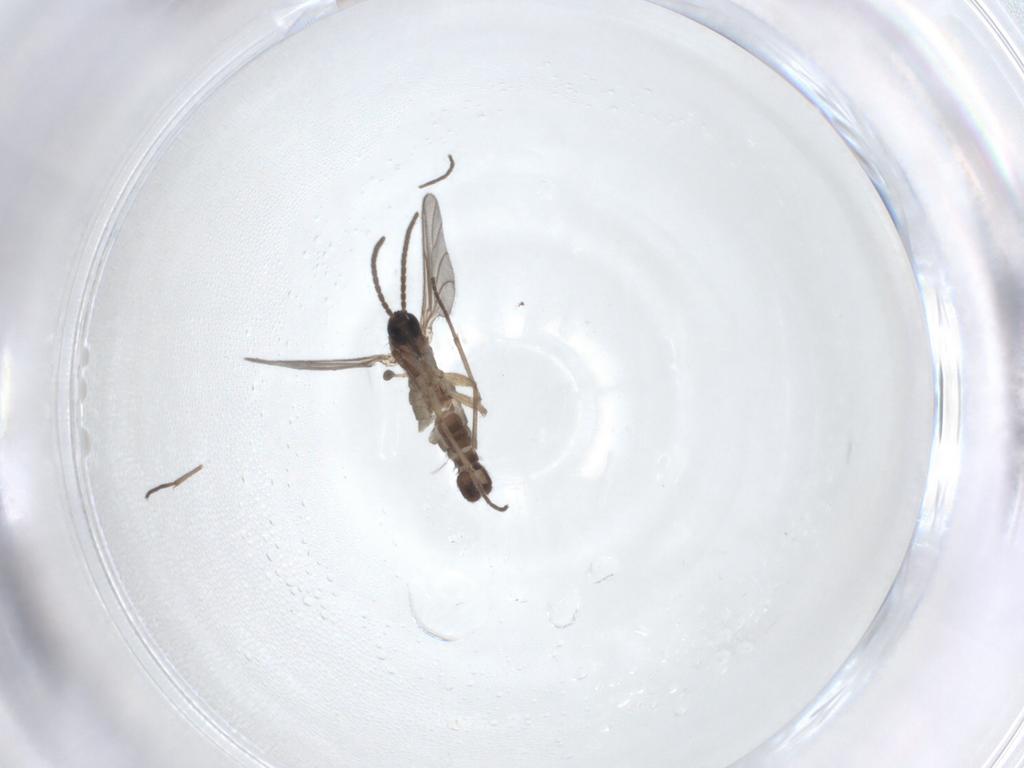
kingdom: Animalia
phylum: Arthropoda
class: Insecta
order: Diptera
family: Sciaridae
